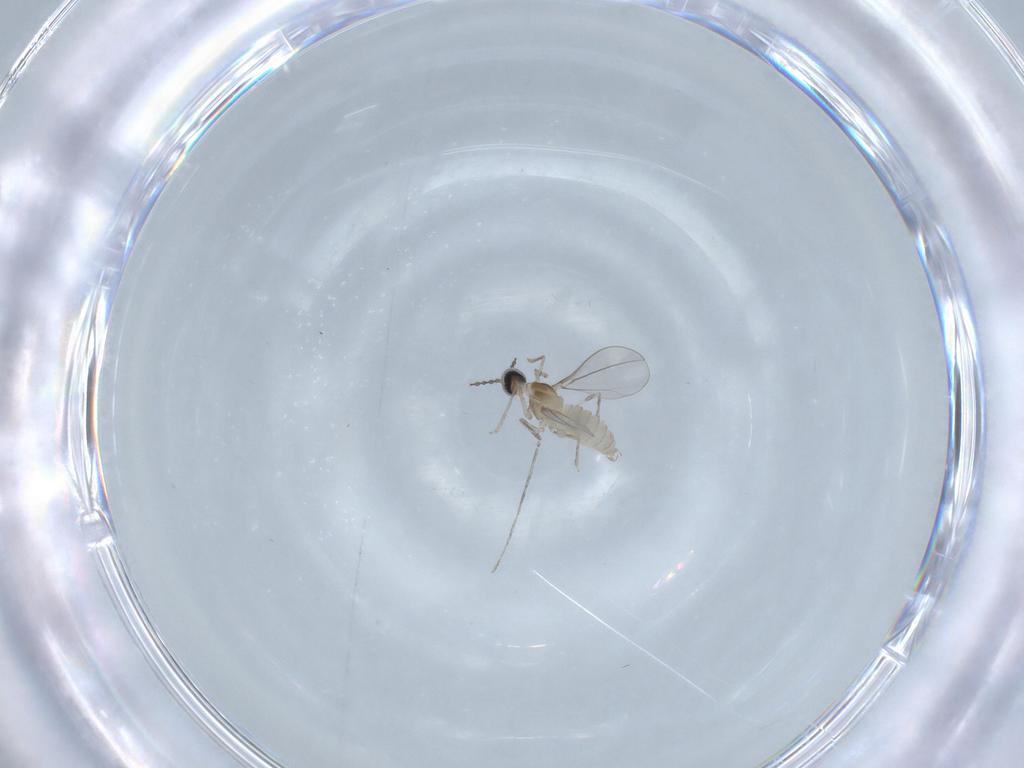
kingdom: Animalia
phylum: Arthropoda
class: Insecta
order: Diptera
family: Cecidomyiidae
